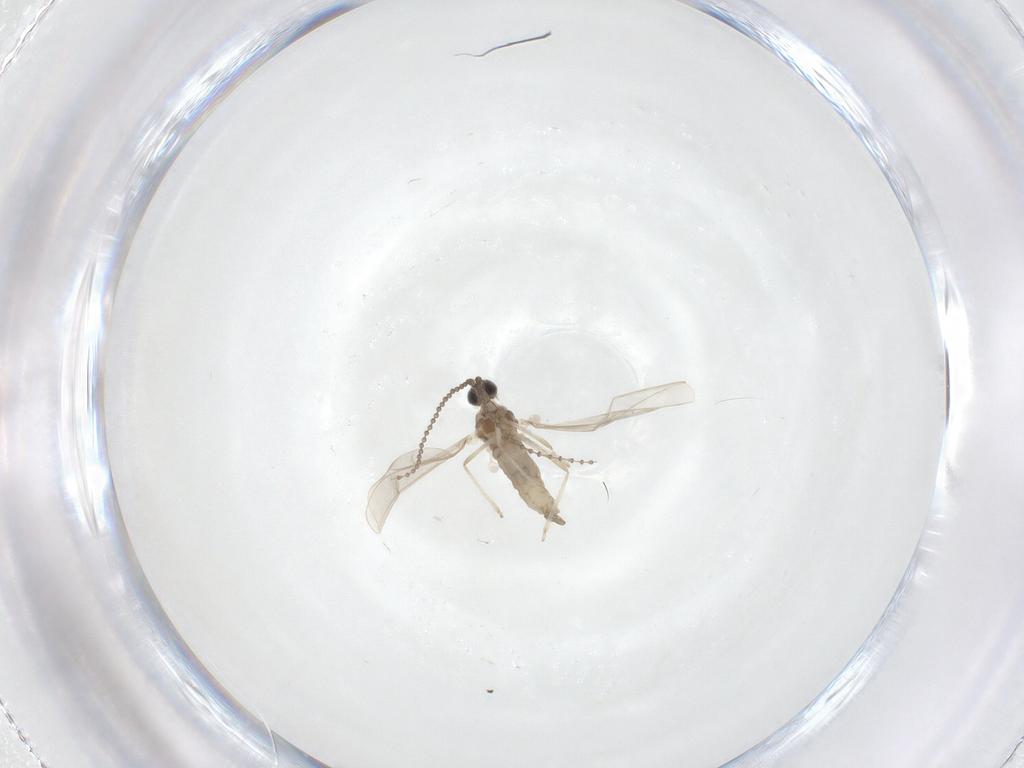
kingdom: Animalia
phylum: Arthropoda
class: Insecta
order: Diptera
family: Cecidomyiidae
